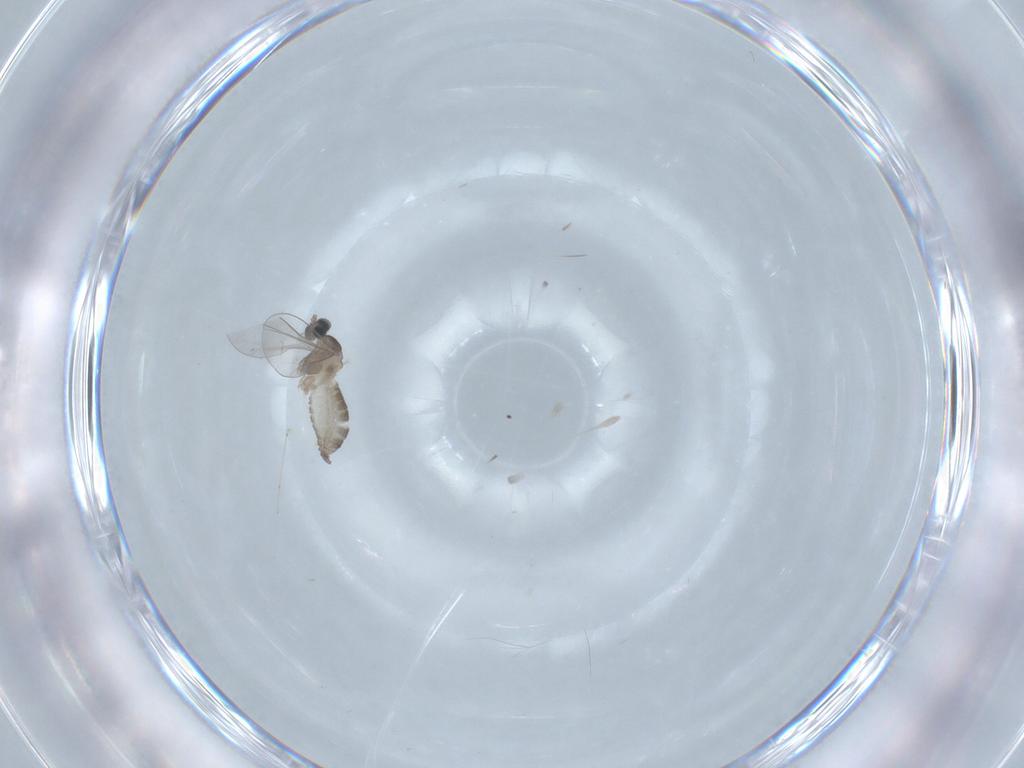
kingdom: Animalia
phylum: Arthropoda
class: Insecta
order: Diptera
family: Cecidomyiidae
